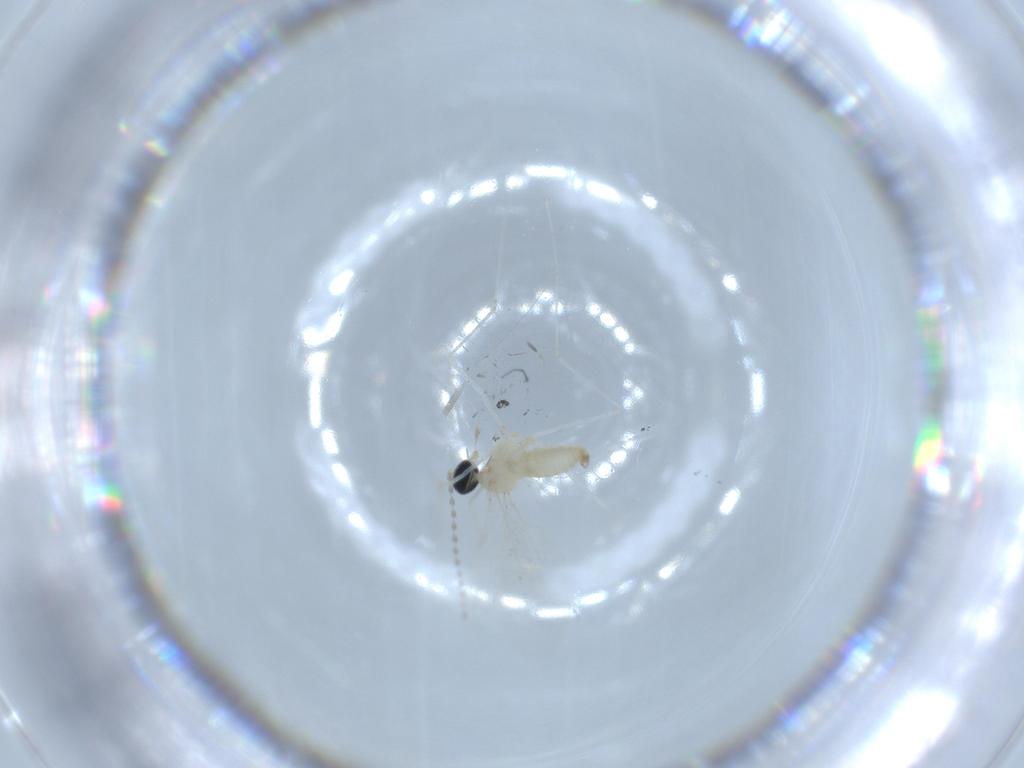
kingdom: Animalia
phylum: Arthropoda
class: Insecta
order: Diptera
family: Cecidomyiidae
